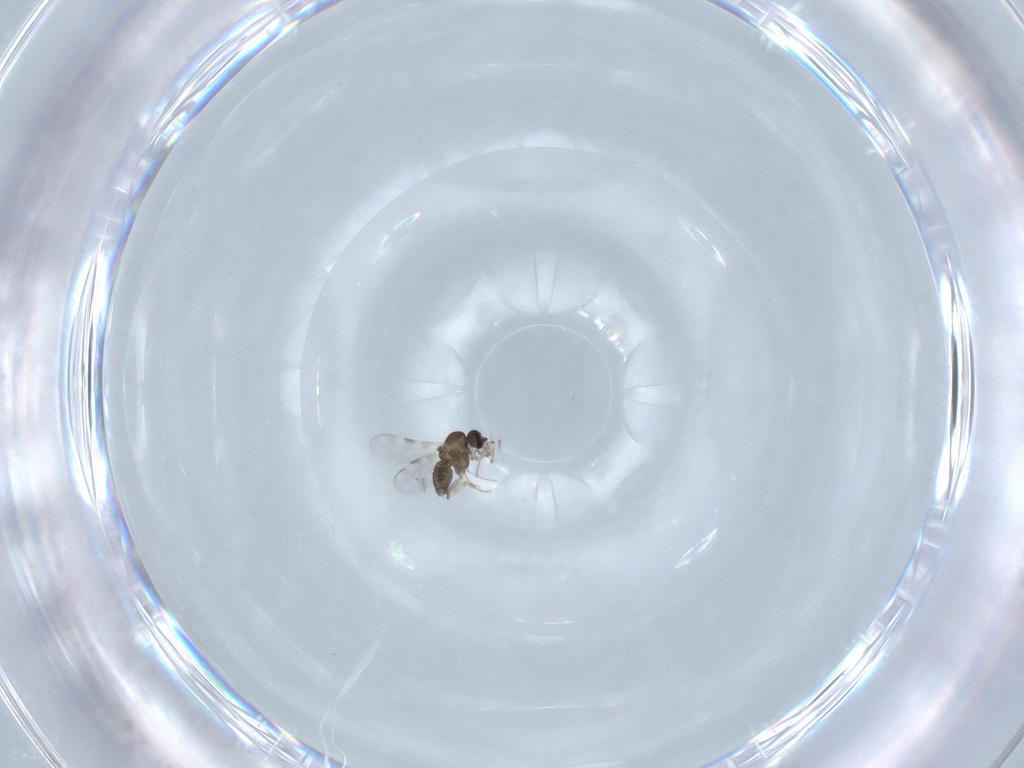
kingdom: Animalia
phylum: Arthropoda
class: Insecta
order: Diptera
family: Ceratopogonidae
